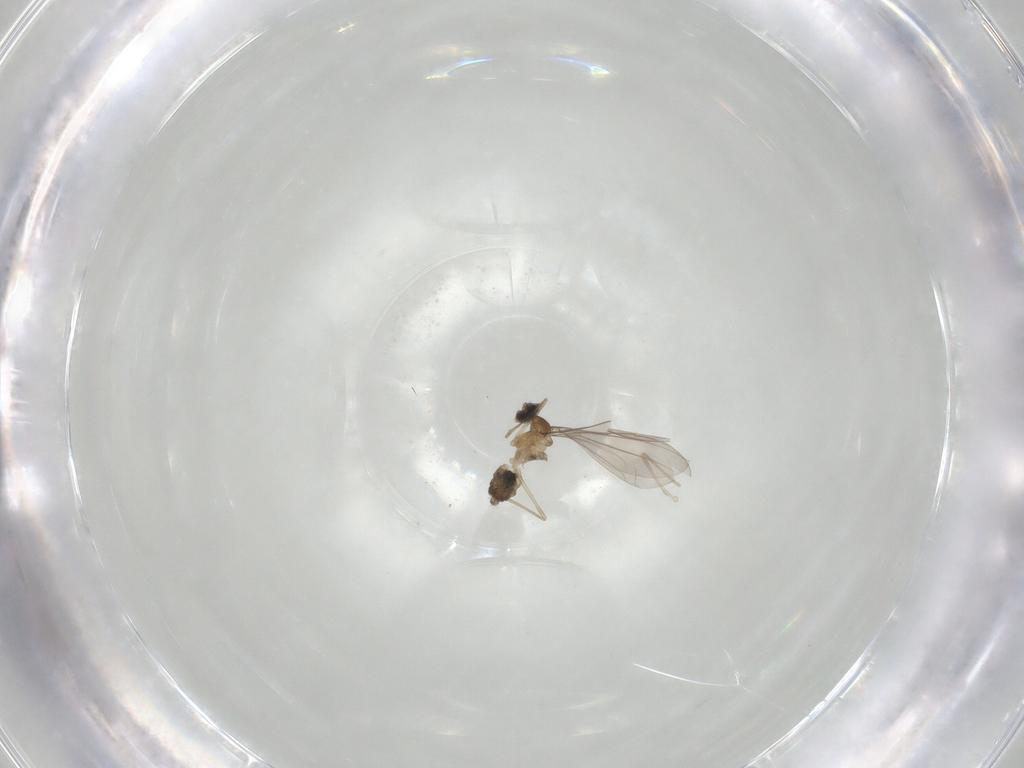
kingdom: Animalia
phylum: Arthropoda
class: Insecta
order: Diptera
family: Cecidomyiidae
